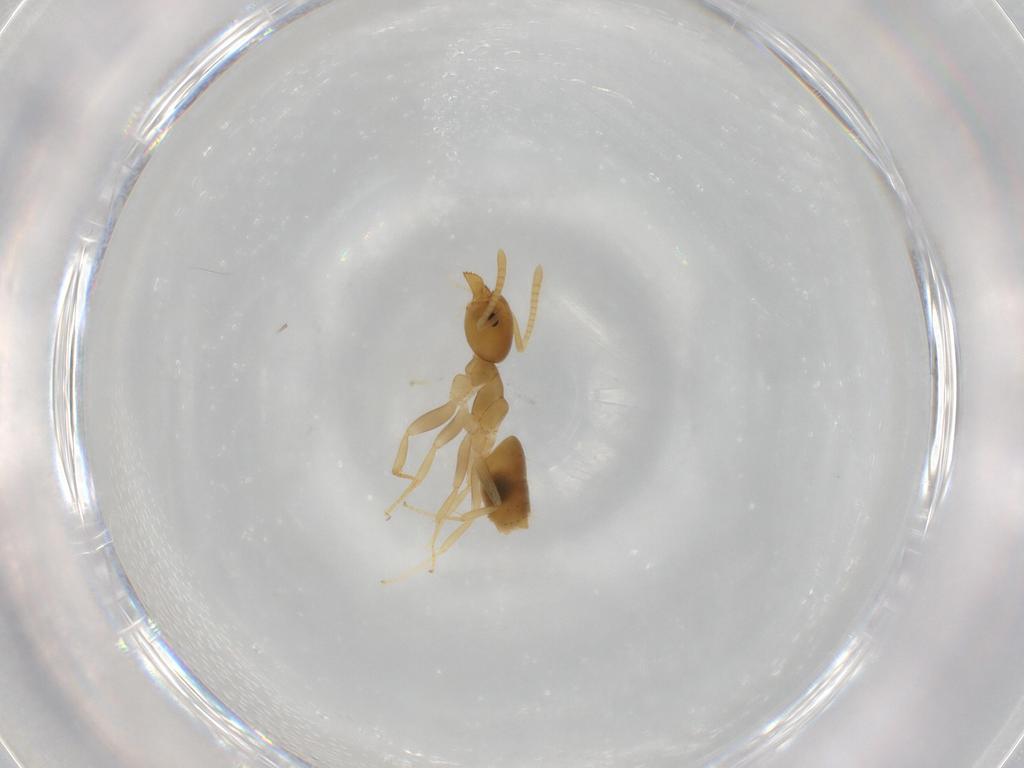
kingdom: Animalia
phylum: Arthropoda
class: Insecta
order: Hymenoptera
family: Formicidae
